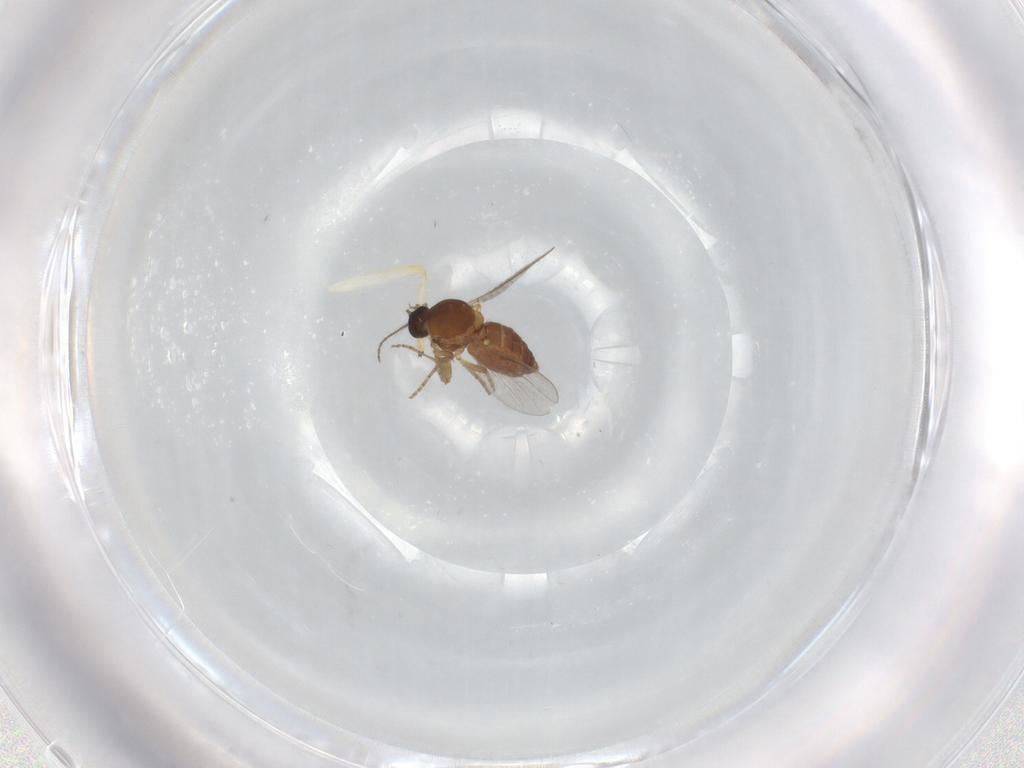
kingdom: Animalia
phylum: Arthropoda
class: Insecta
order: Diptera
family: Chironomidae
